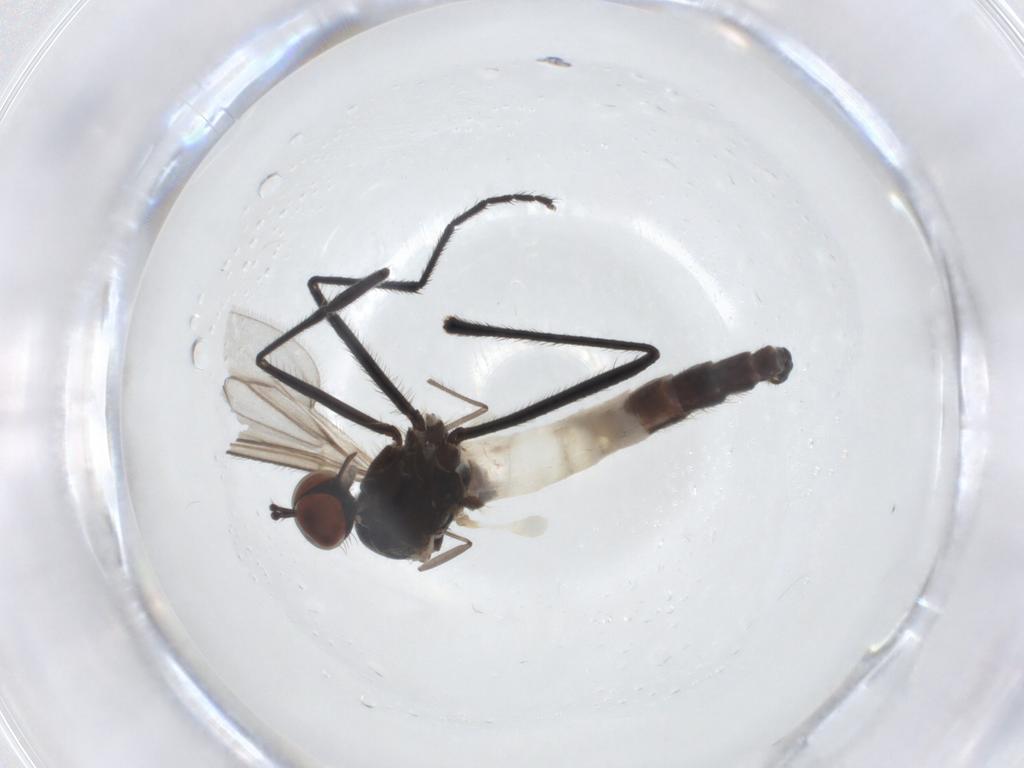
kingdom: Animalia
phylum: Arthropoda
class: Insecta
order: Diptera
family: Empididae
